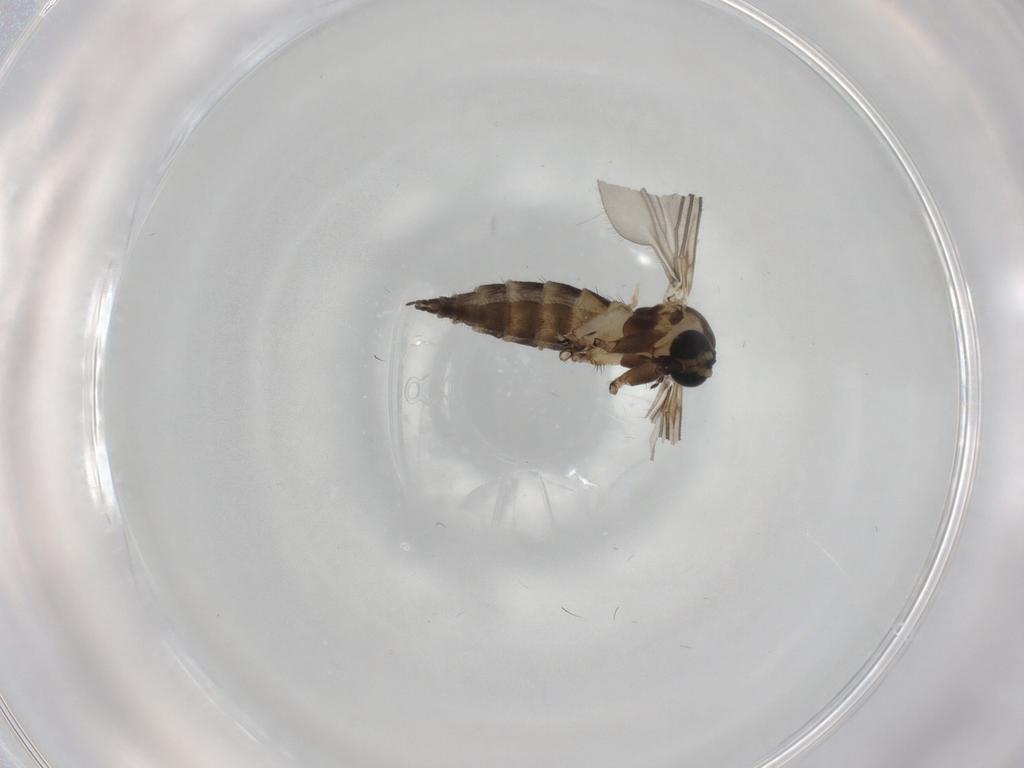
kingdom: Animalia
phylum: Arthropoda
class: Insecta
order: Diptera
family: Sciaridae
